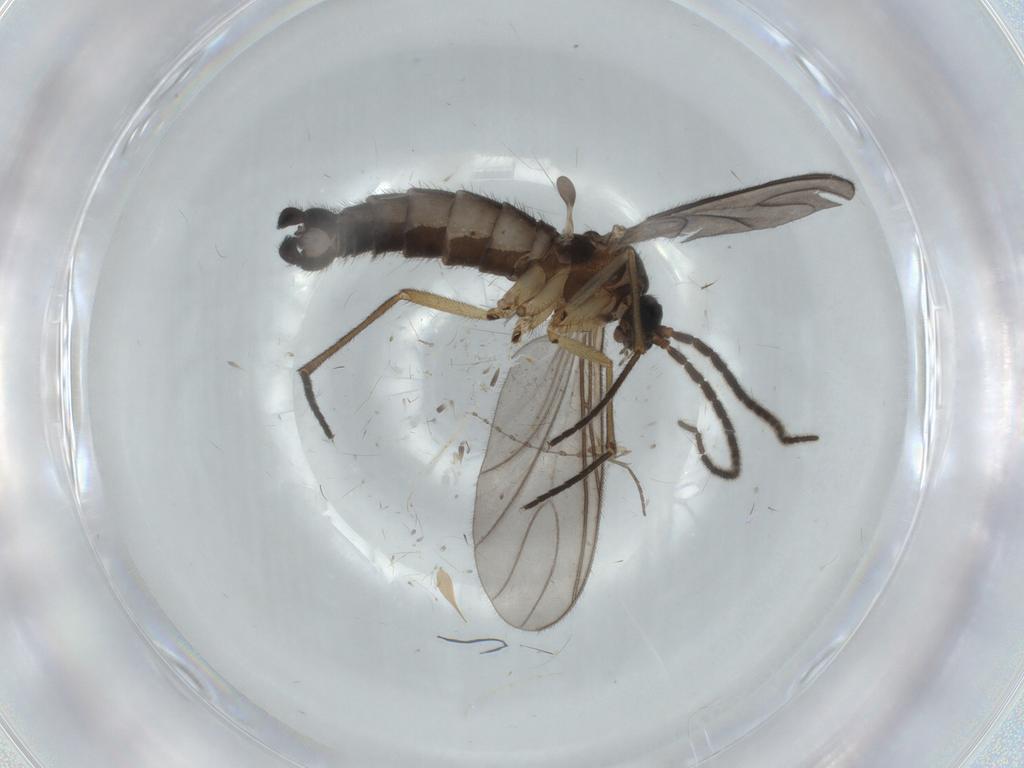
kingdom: Animalia
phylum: Arthropoda
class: Insecta
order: Diptera
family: Sciaridae
